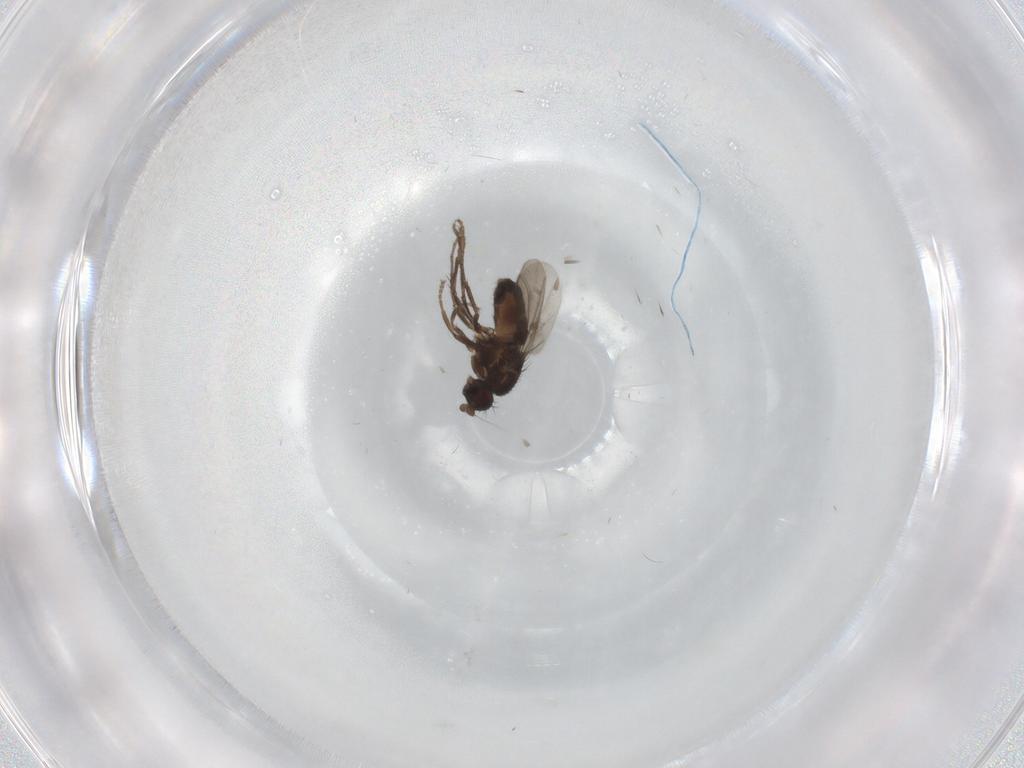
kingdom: Animalia
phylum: Arthropoda
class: Insecta
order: Diptera
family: Sphaeroceridae
